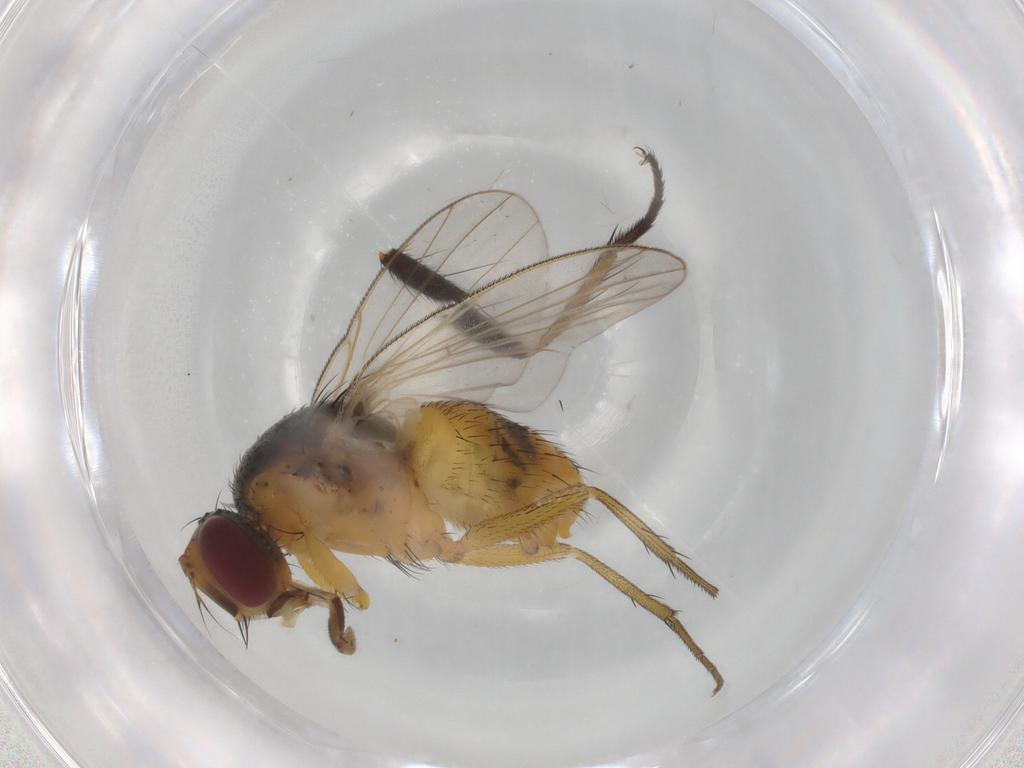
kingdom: Animalia
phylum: Arthropoda
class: Insecta
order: Diptera
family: Muscidae
